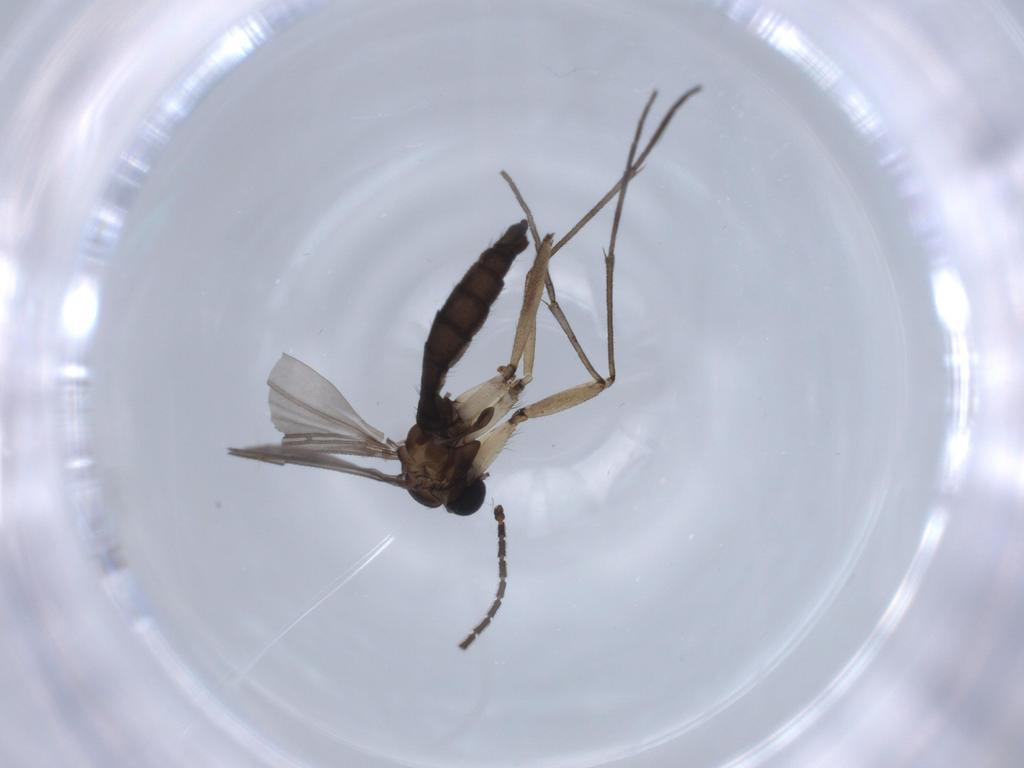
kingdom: Animalia
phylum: Arthropoda
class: Insecta
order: Diptera
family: Sciaridae
